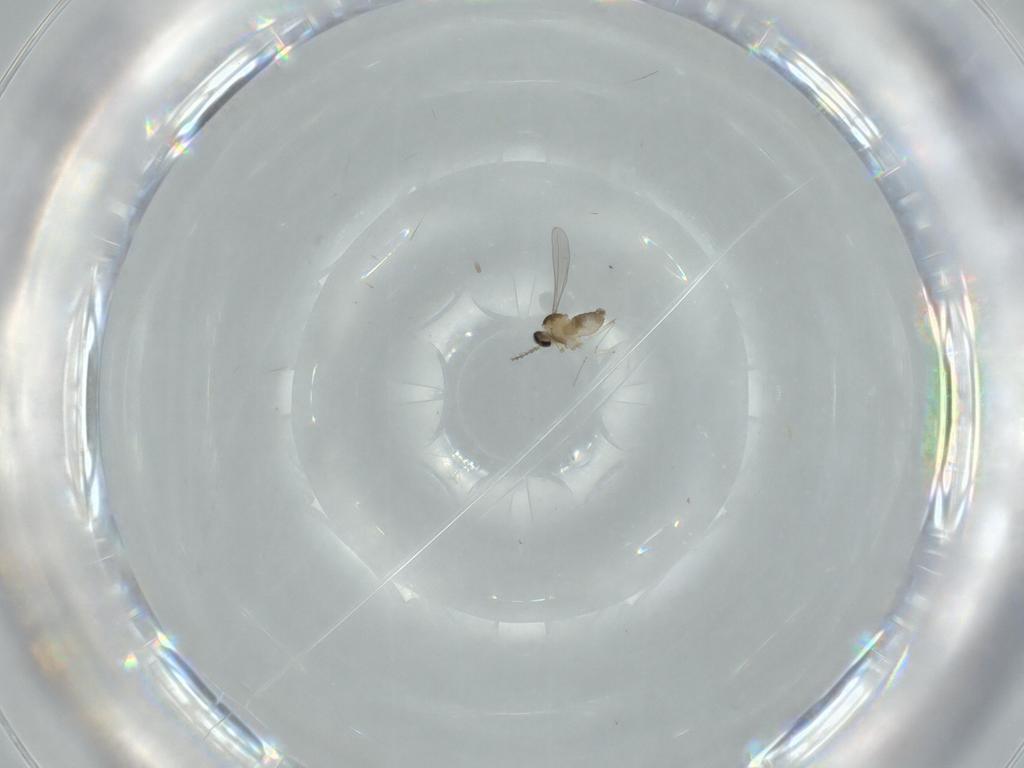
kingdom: Animalia
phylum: Arthropoda
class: Insecta
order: Diptera
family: Cecidomyiidae
